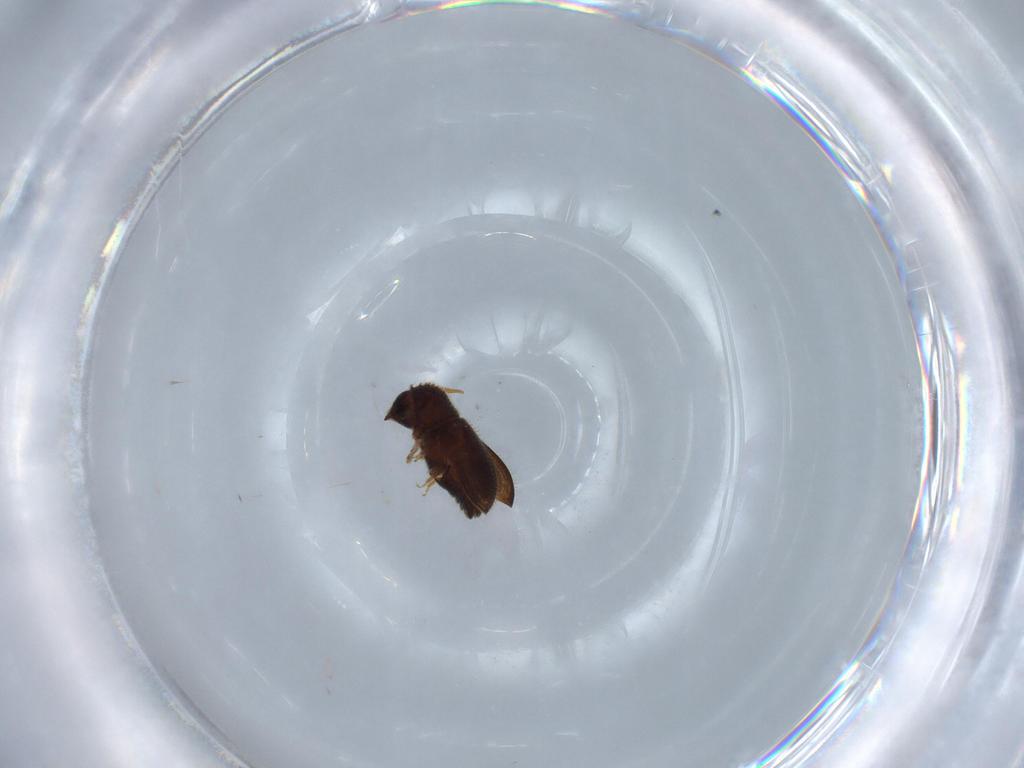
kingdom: Animalia
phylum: Arthropoda
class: Insecta
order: Coleoptera
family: Curculionidae
